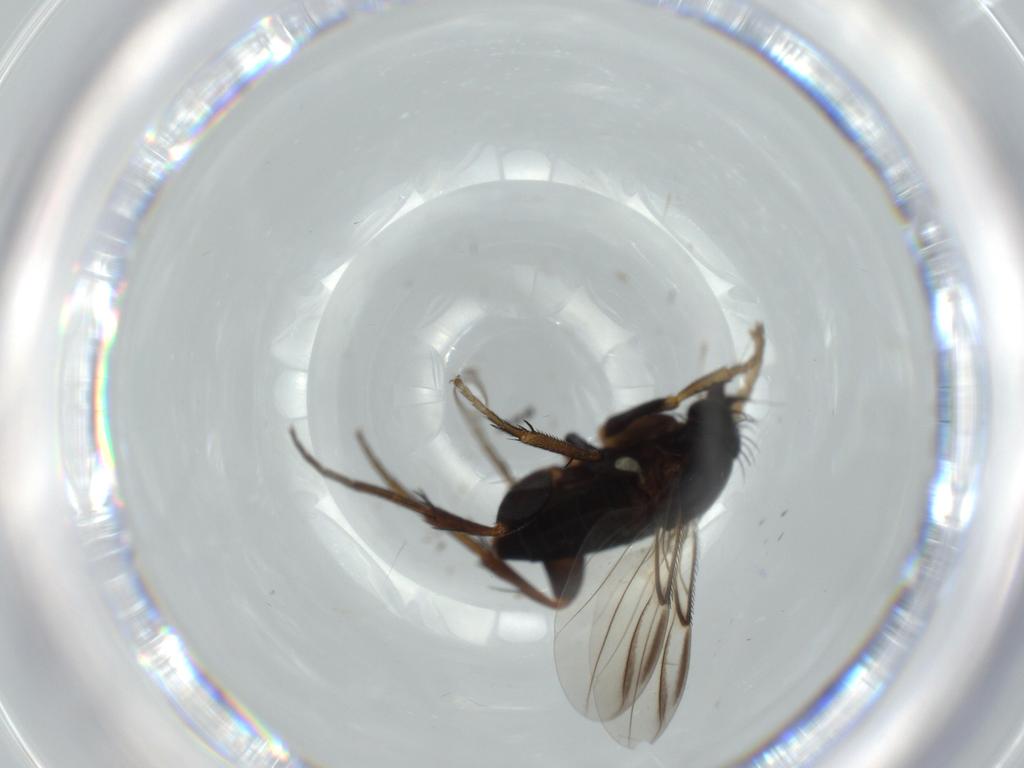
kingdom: Animalia
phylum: Arthropoda
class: Insecta
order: Diptera
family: Phoridae
